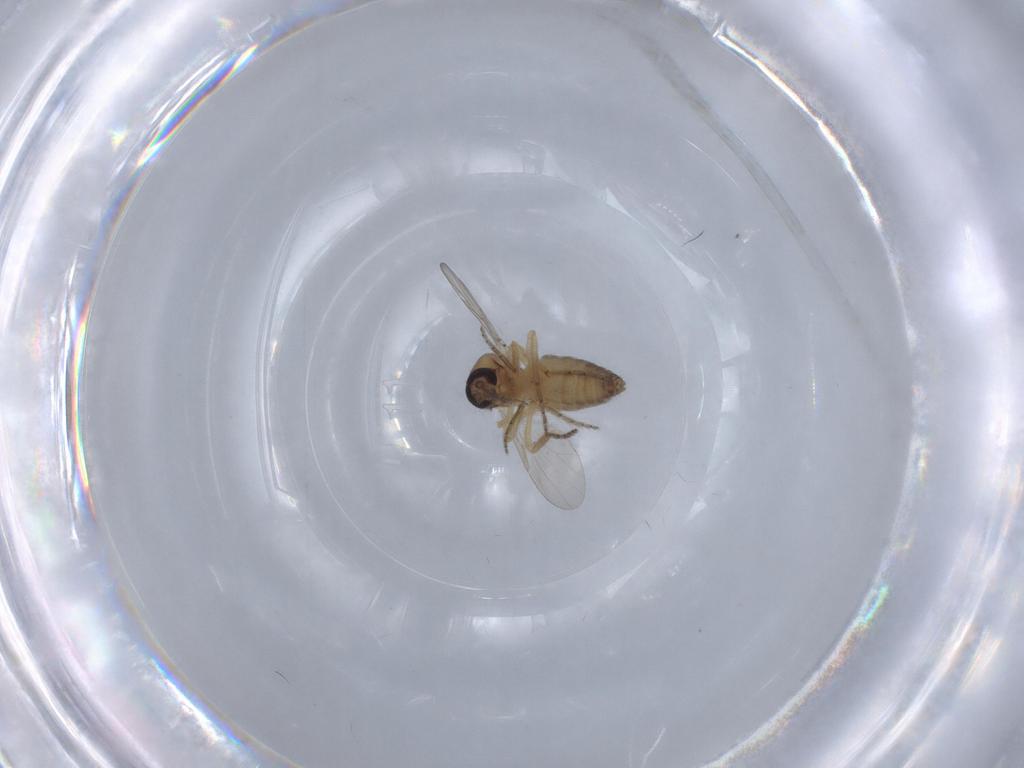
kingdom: Animalia
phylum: Arthropoda
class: Insecta
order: Diptera
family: Ceratopogonidae
